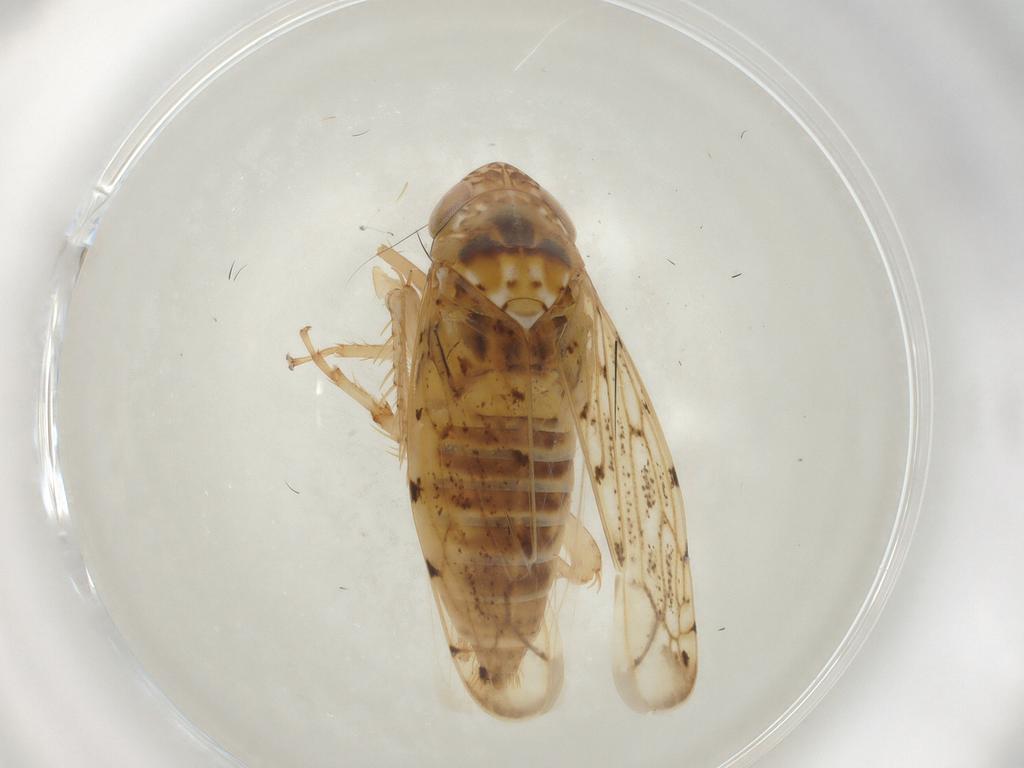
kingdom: Animalia
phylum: Arthropoda
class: Insecta
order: Hemiptera
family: Cicadellidae
